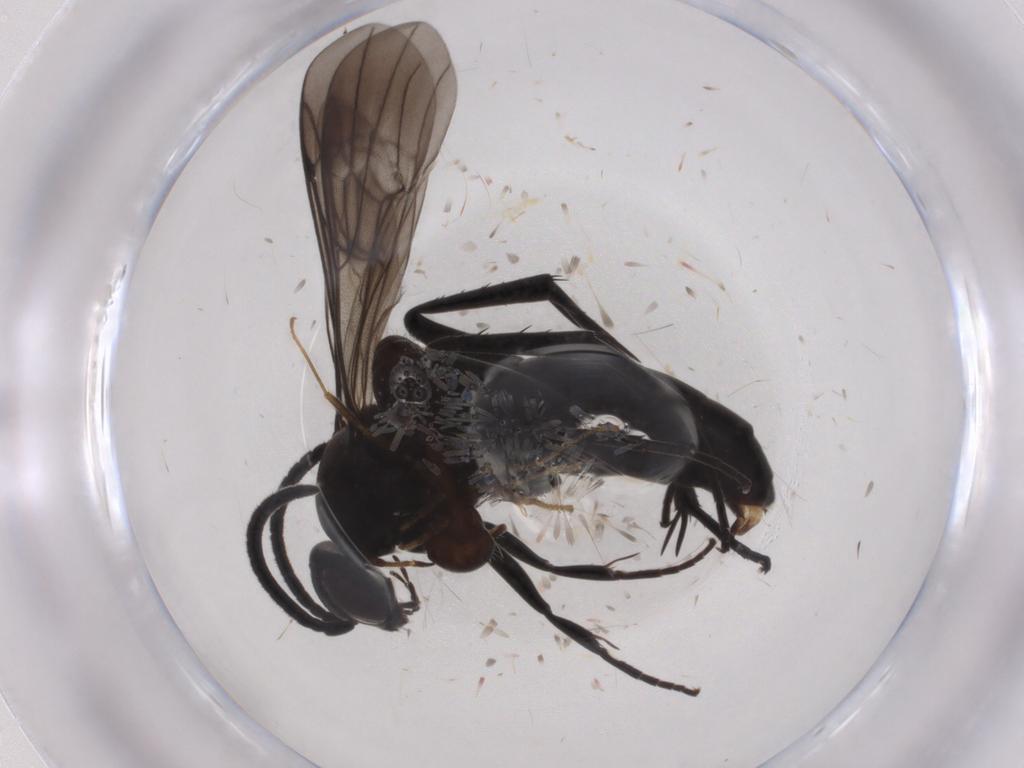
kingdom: Animalia
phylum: Arthropoda
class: Insecta
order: Hymenoptera
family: Pompilidae
